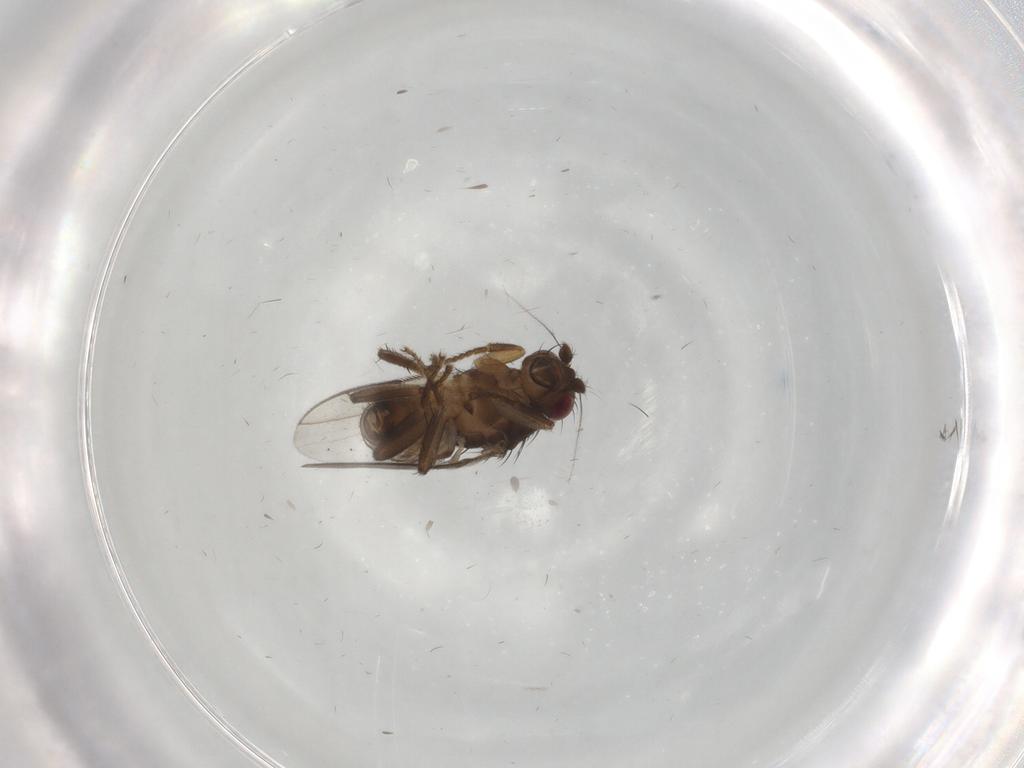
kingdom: Animalia
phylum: Arthropoda
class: Insecta
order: Diptera
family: Sphaeroceridae
